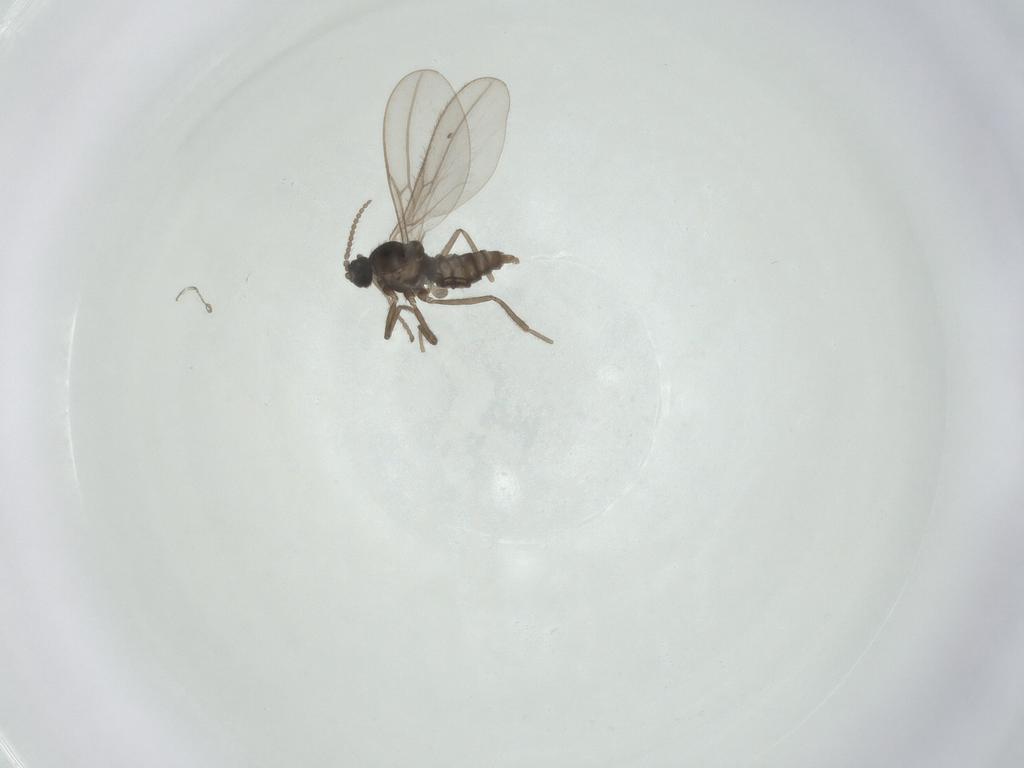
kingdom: Animalia
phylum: Arthropoda
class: Insecta
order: Diptera
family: Cecidomyiidae
